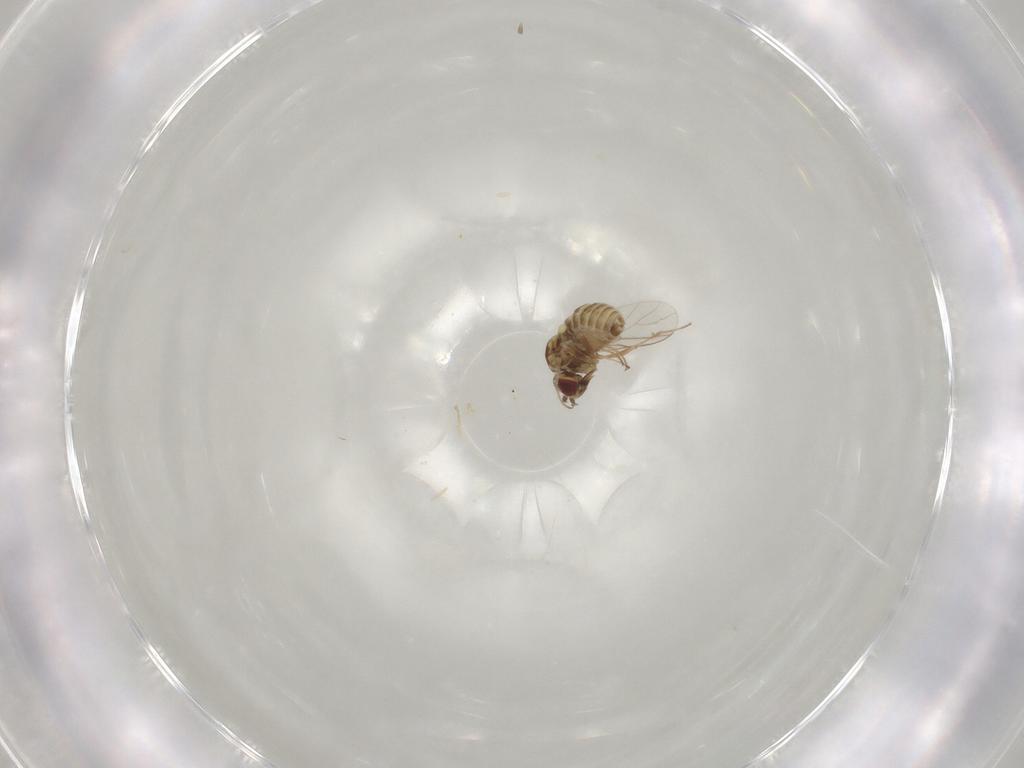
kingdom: Animalia
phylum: Arthropoda
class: Insecta
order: Diptera
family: Mythicomyiidae
